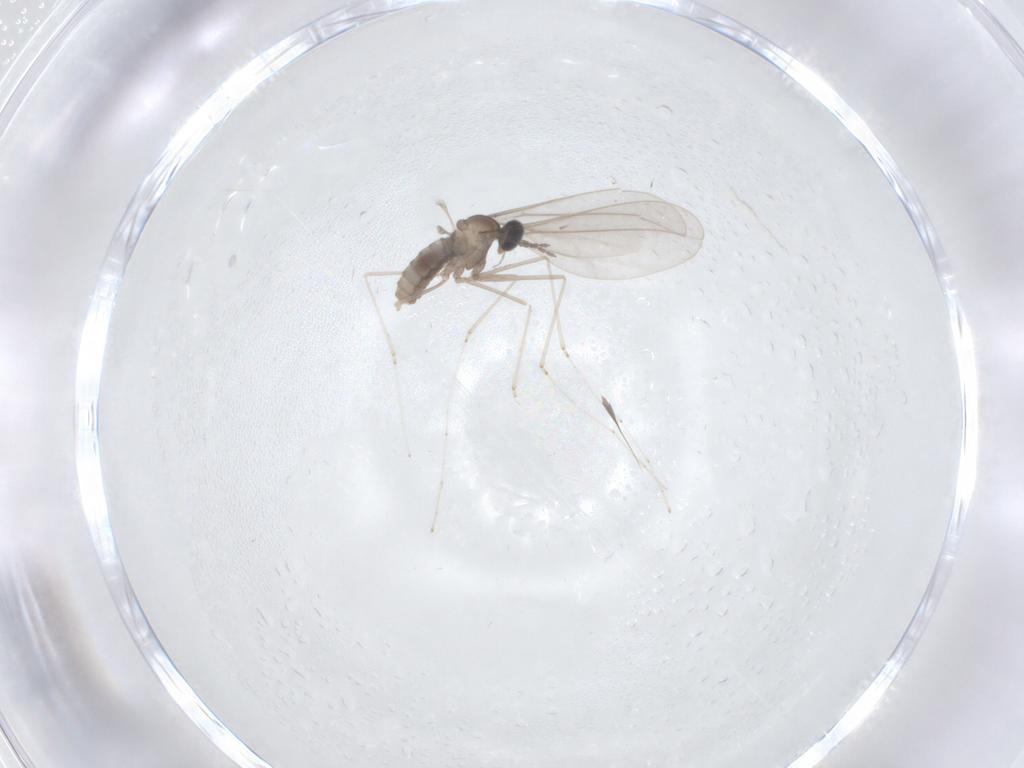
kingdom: Animalia
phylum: Arthropoda
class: Insecta
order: Diptera
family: Cecidomyiidae
